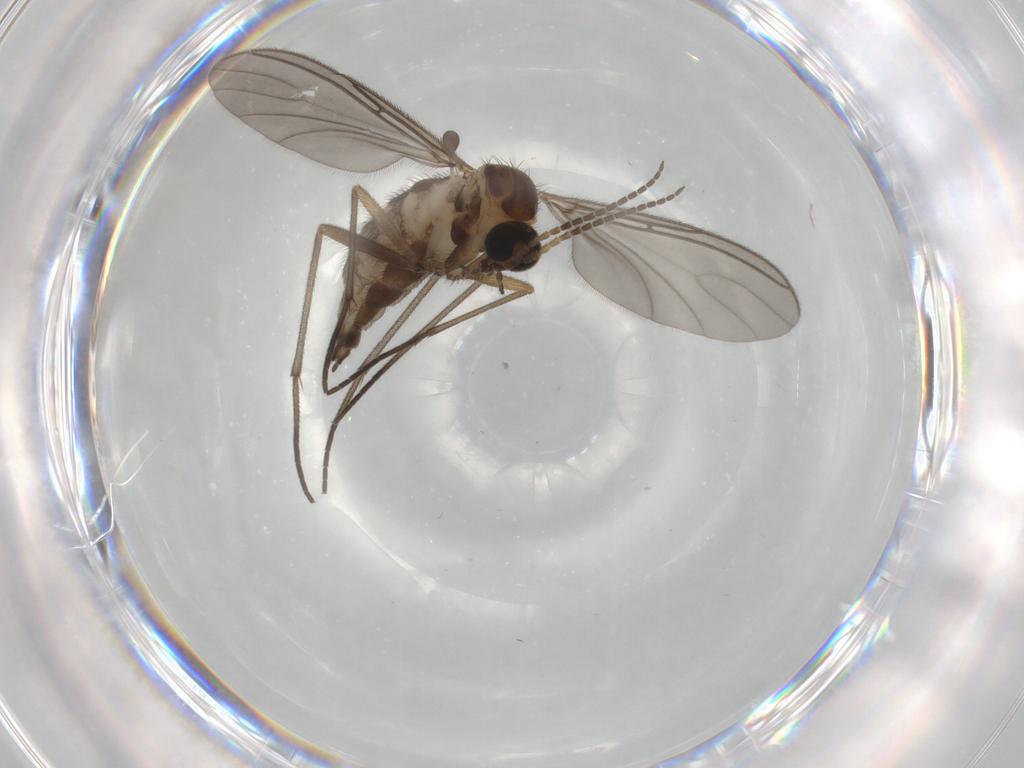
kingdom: Animalia
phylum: Arthropoda
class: Insecta
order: Diptera
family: Sciaridae
